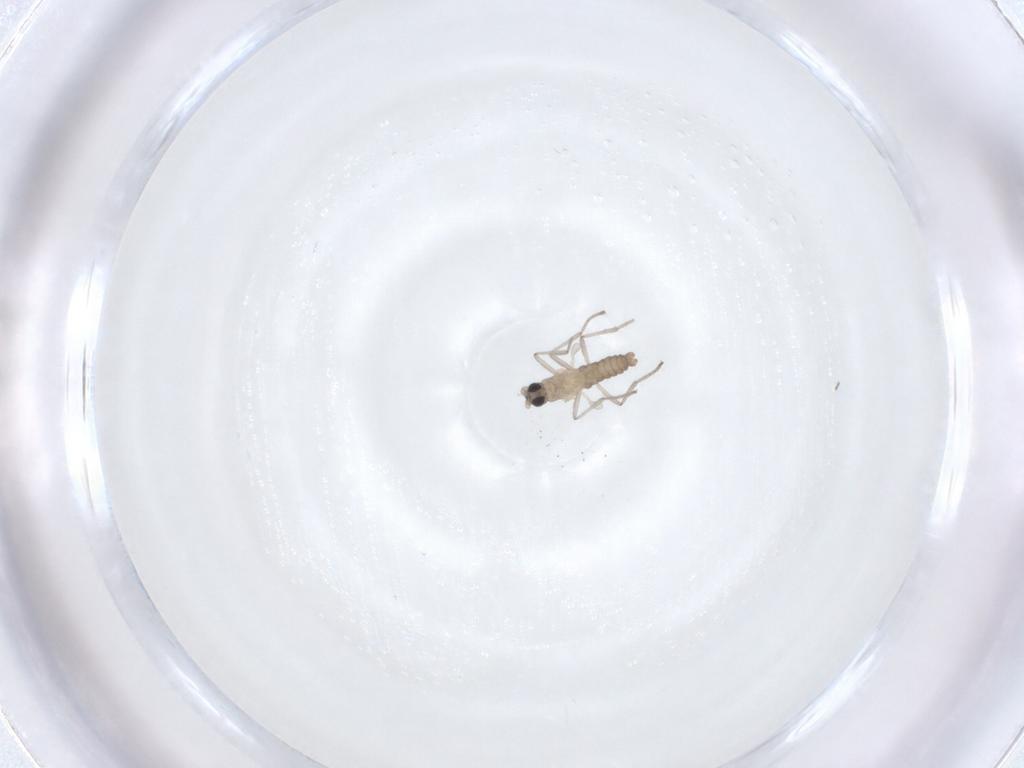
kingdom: Animalia
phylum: Arthropoda
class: Insecta
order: Diptera
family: Cecidomyiidae
